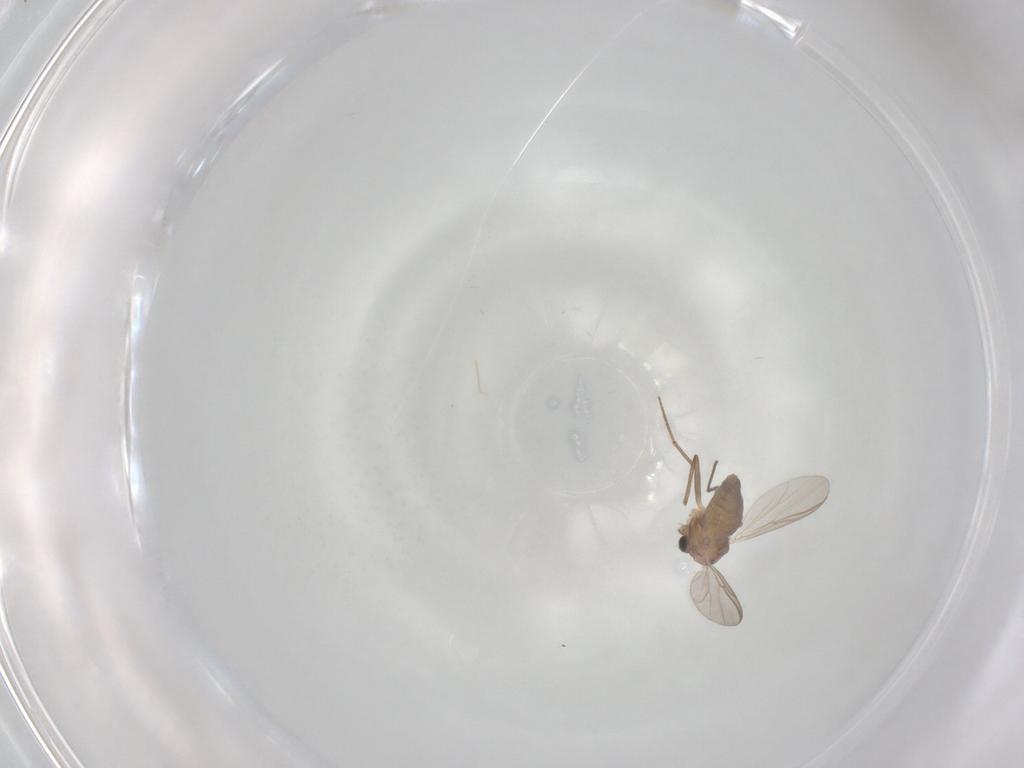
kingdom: Animalia
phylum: Arthropoda
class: Insecta
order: Diptera
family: Chironomidae
